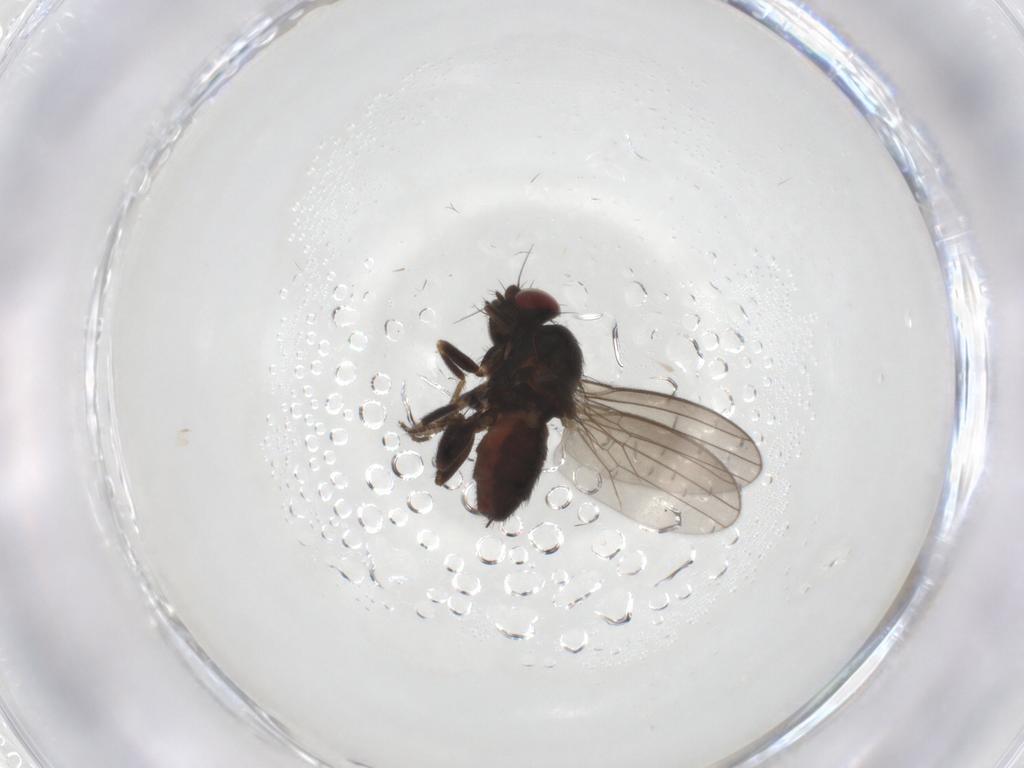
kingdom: Animalia
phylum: Arthropoda
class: Insecta
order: Diptera
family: Milichiidae
